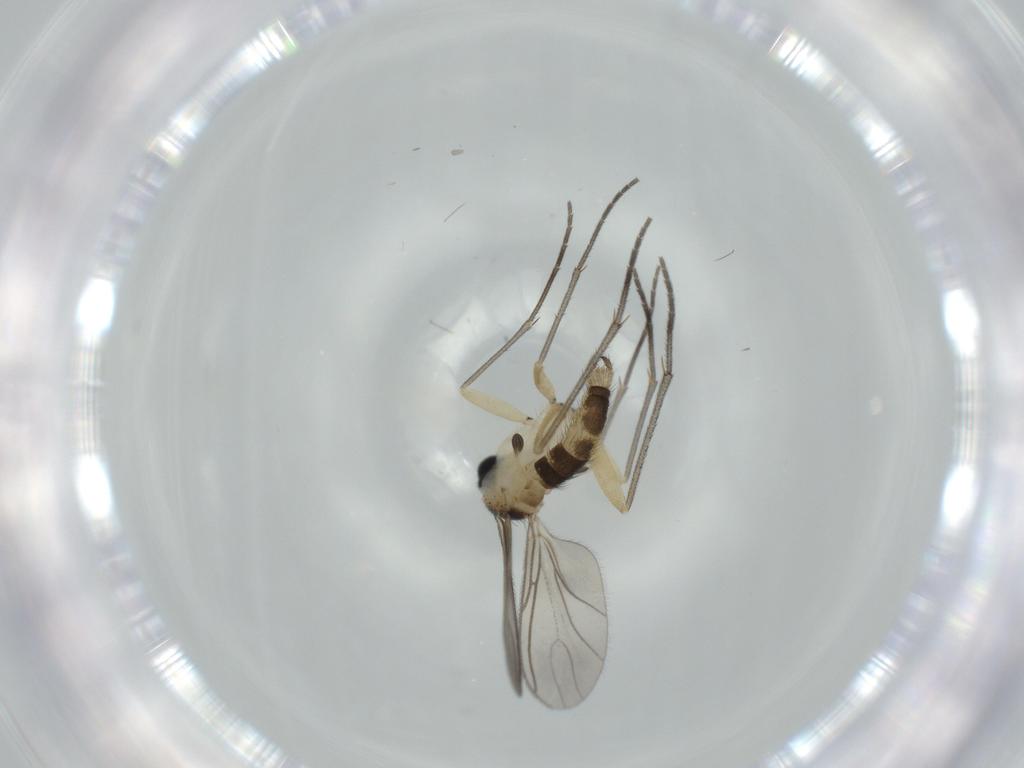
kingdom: Animalia
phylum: Arthropoda
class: Insecta
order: Diptera
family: Sciaridae
